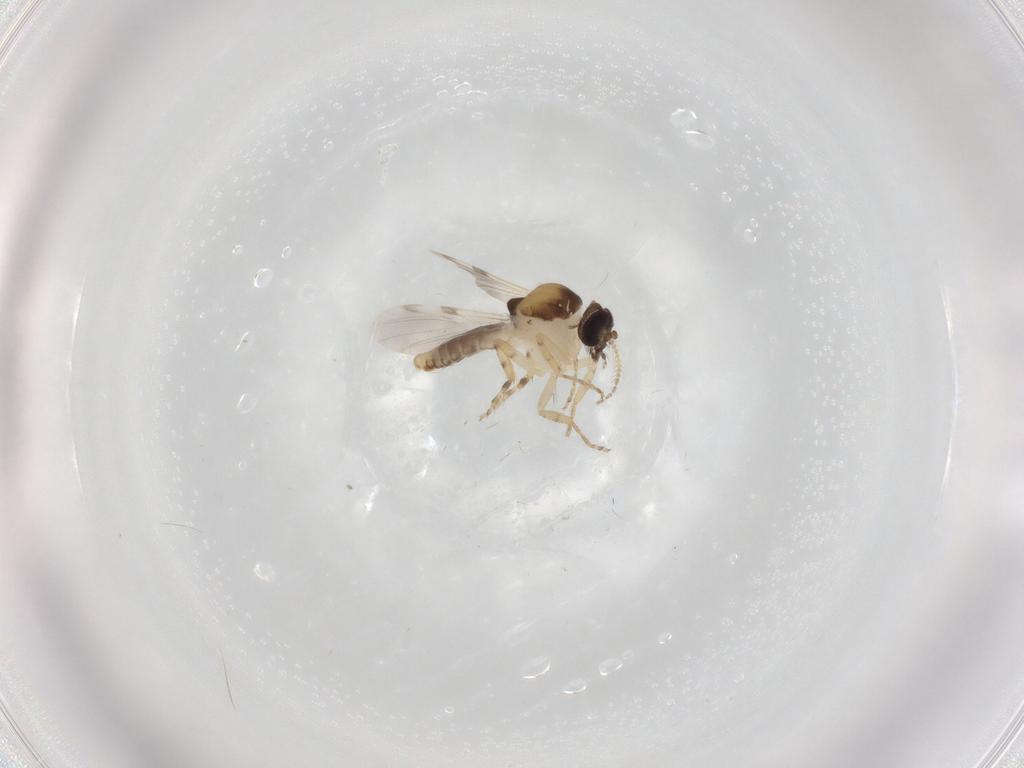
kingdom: Animalia
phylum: Arthropoda
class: Insecta
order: Diptera
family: Ceratopogonidae
